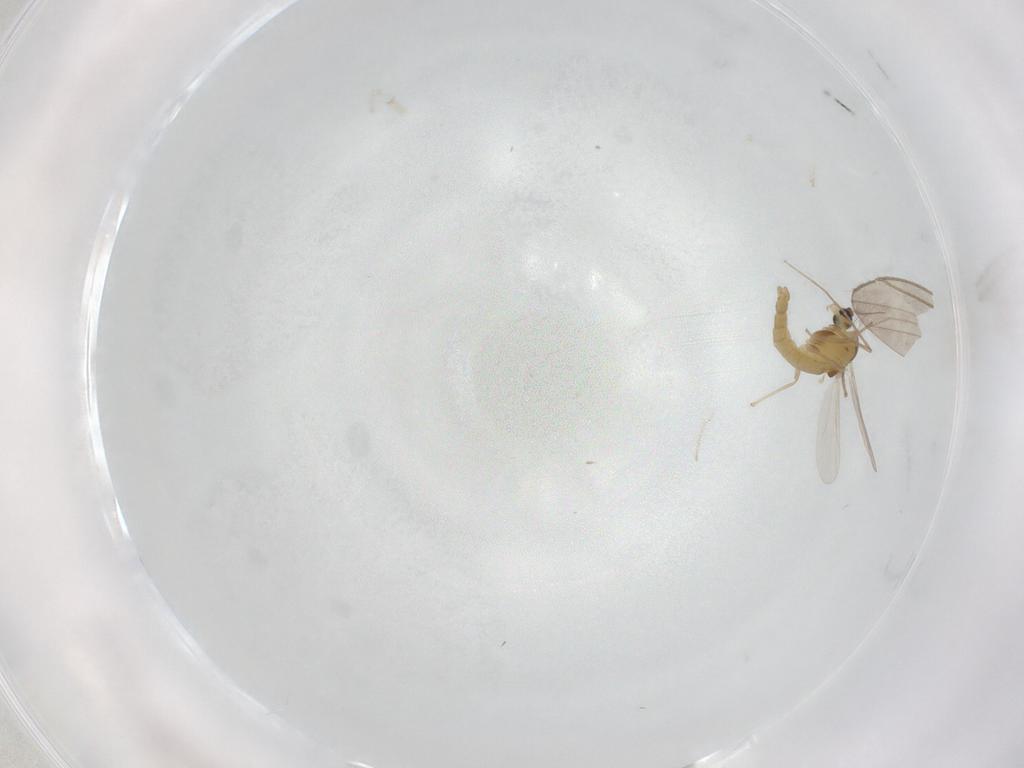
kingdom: Animalia
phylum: Arthropoda
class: Insecta
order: Diptera
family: Chironomidae
